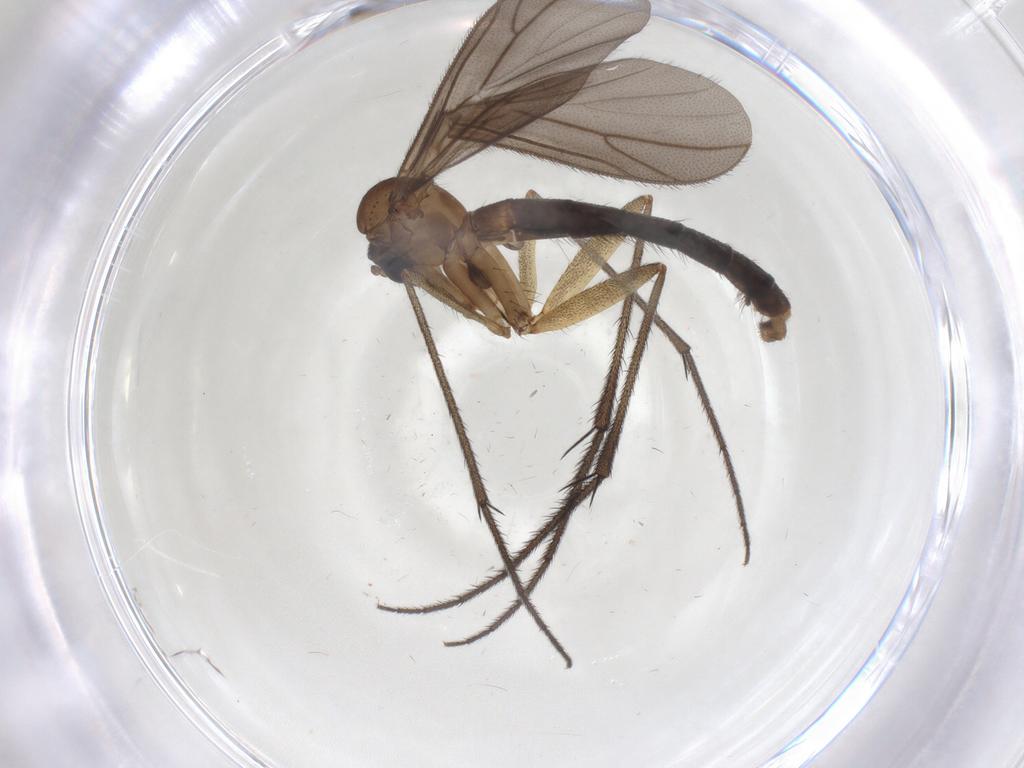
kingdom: Animalia
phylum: Arthropoda
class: Insecta
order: Diptera
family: Ditomyiidae
